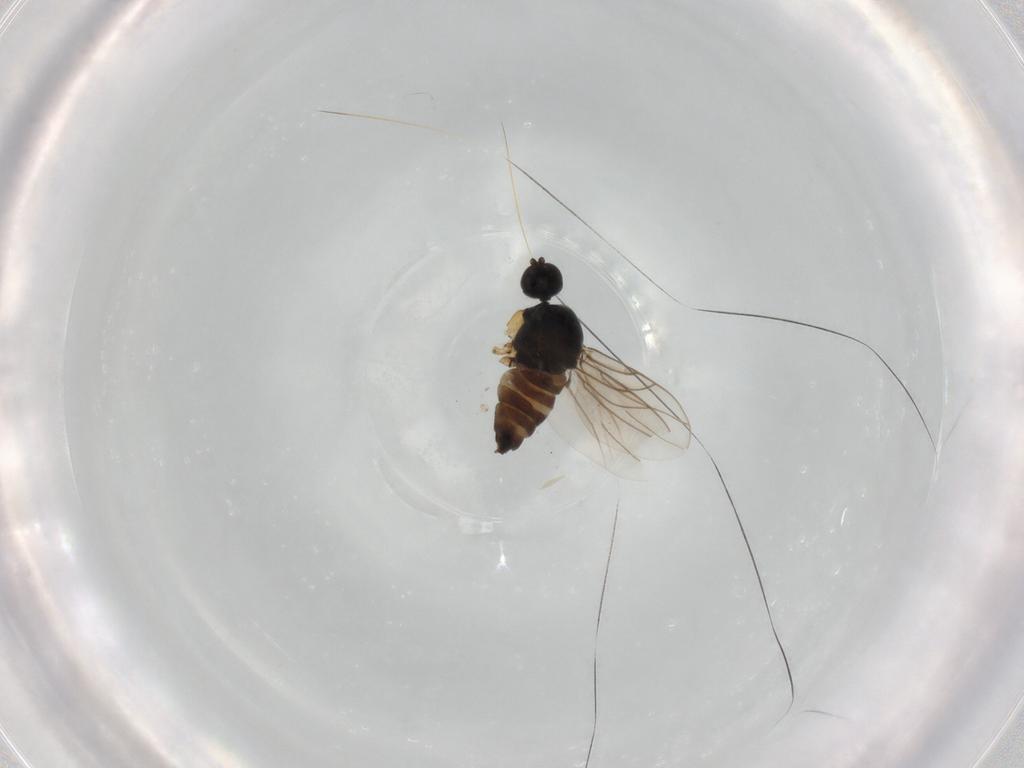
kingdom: Animalia
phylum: Arthropoda
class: Insecta
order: Diptera
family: Hybotidae
